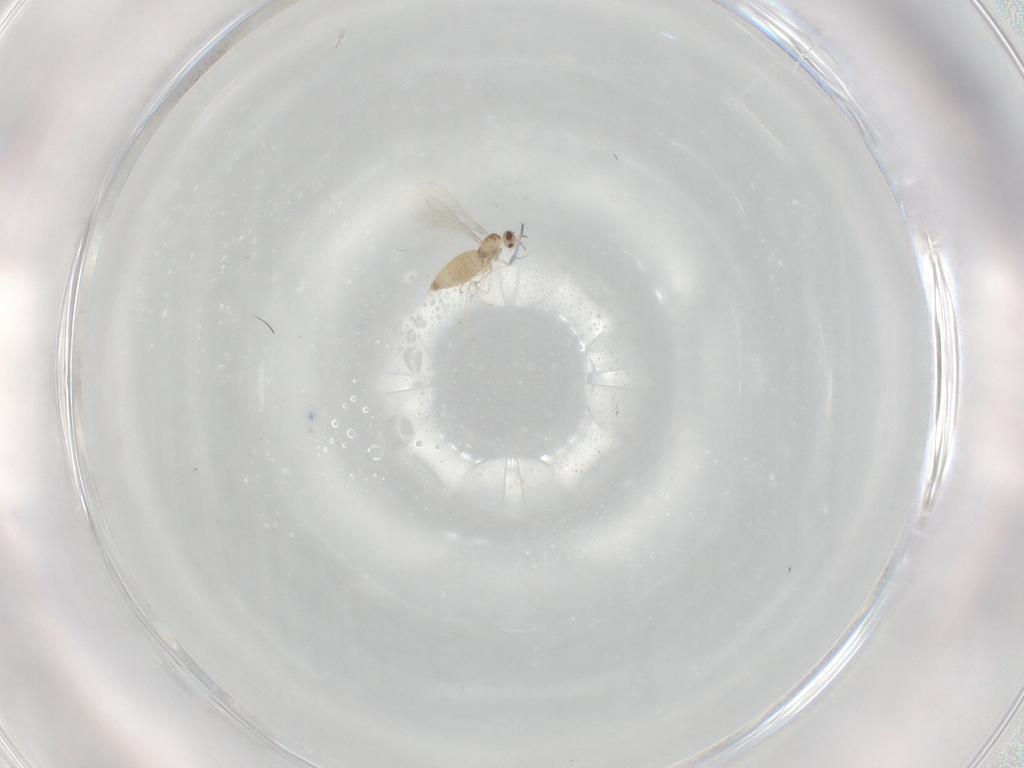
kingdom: Animalia
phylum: Arthropoda
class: Insecta
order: Diptera
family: Cecidomyiidae
